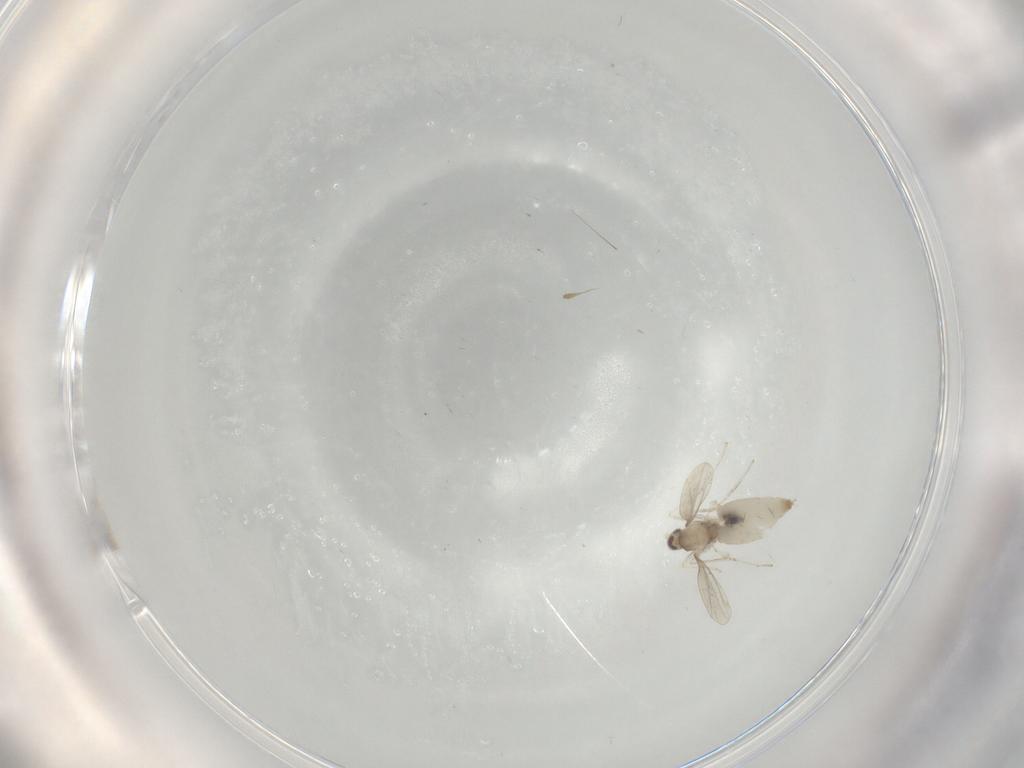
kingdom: Animalia
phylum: Arthropoda
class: Insecta
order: Diptera
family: Cecidomyiidae
